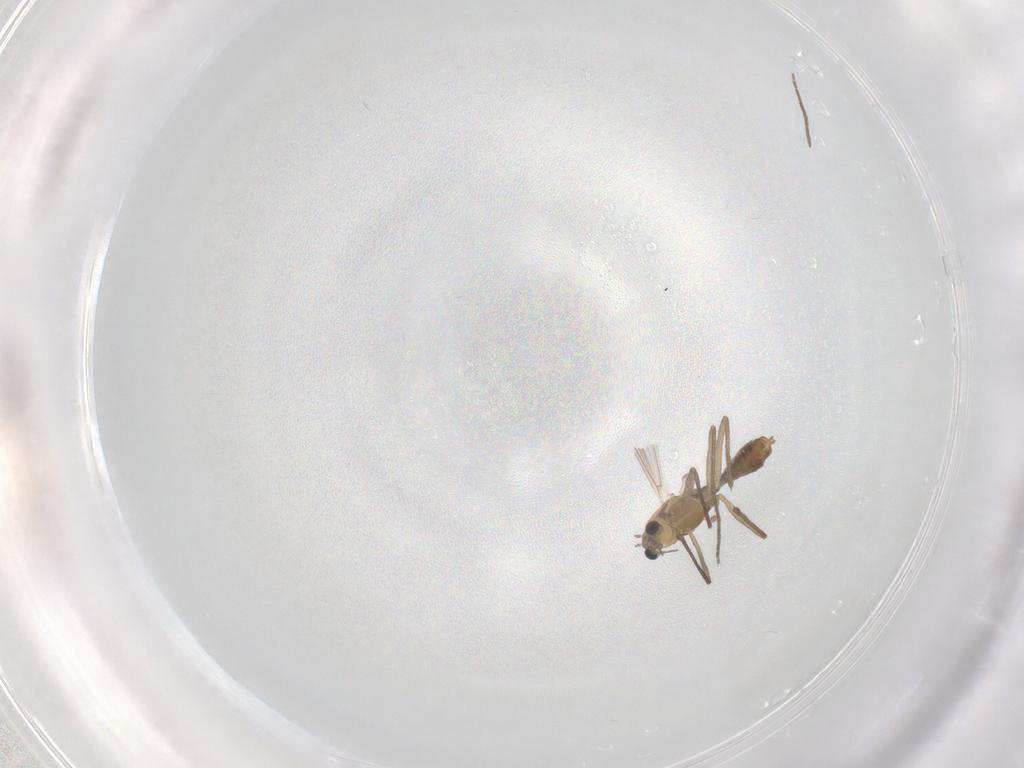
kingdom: Animalia
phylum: Arthropoda
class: Insecta
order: Diptera
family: Chironomidae
